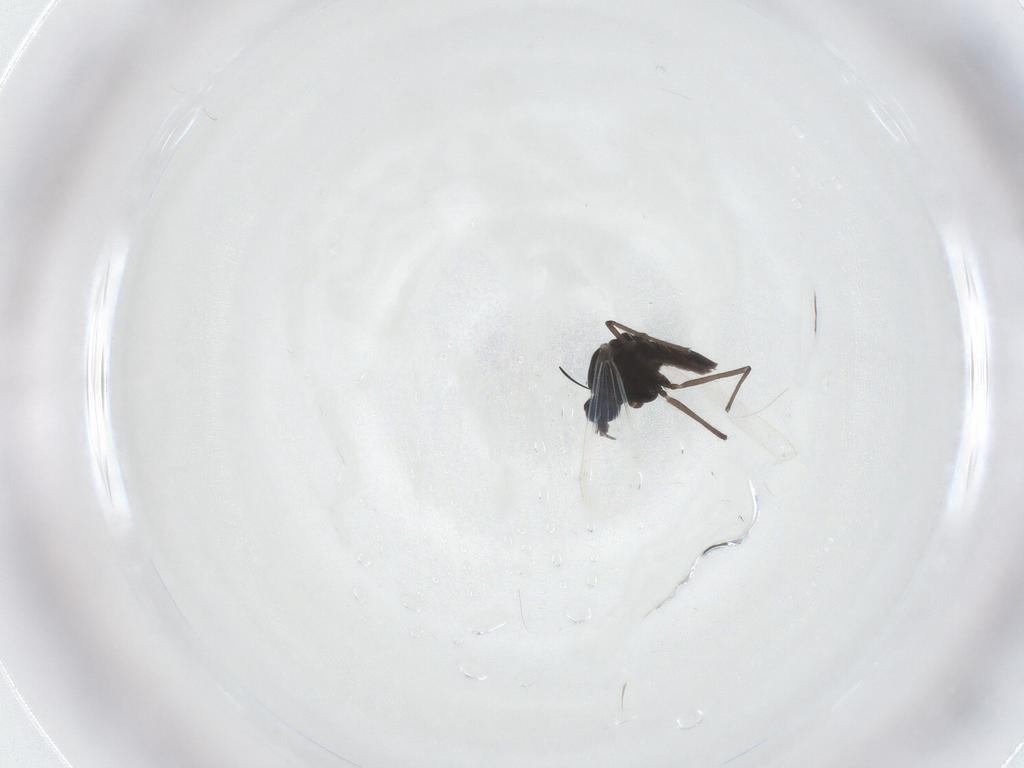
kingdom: Animalia
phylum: Arthropoda
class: Insecta
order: Diptera
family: Chironomidae
